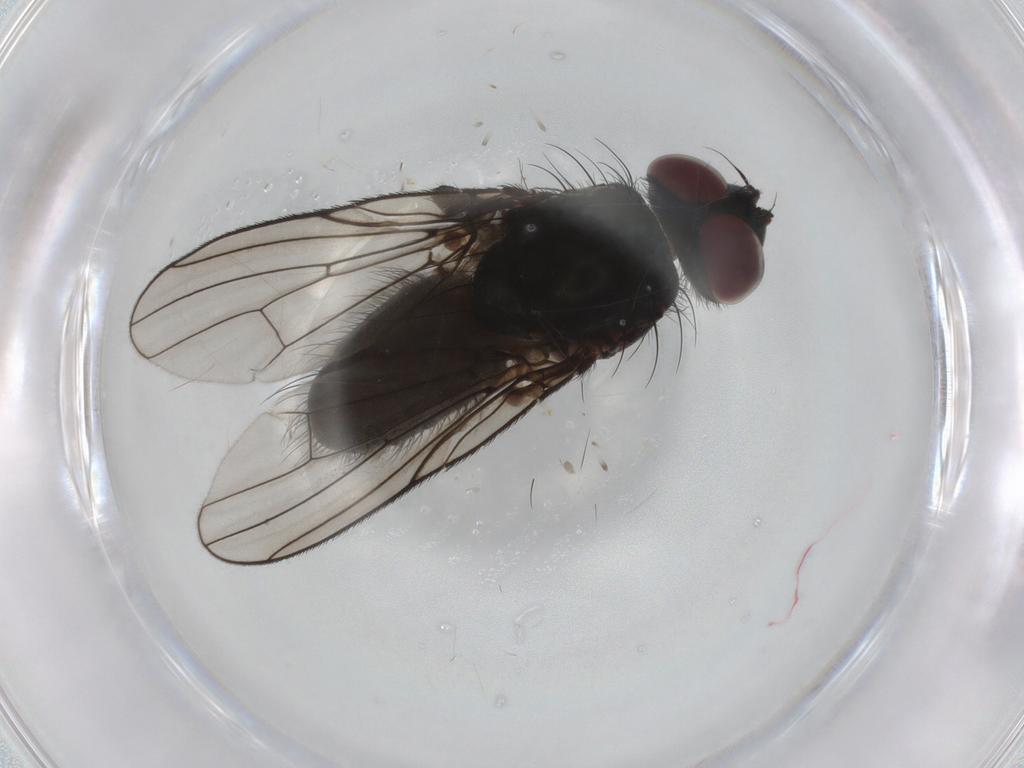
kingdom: Animalia
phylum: Arthropoda
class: Insecta
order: Diptera
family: Anthomyiidae
